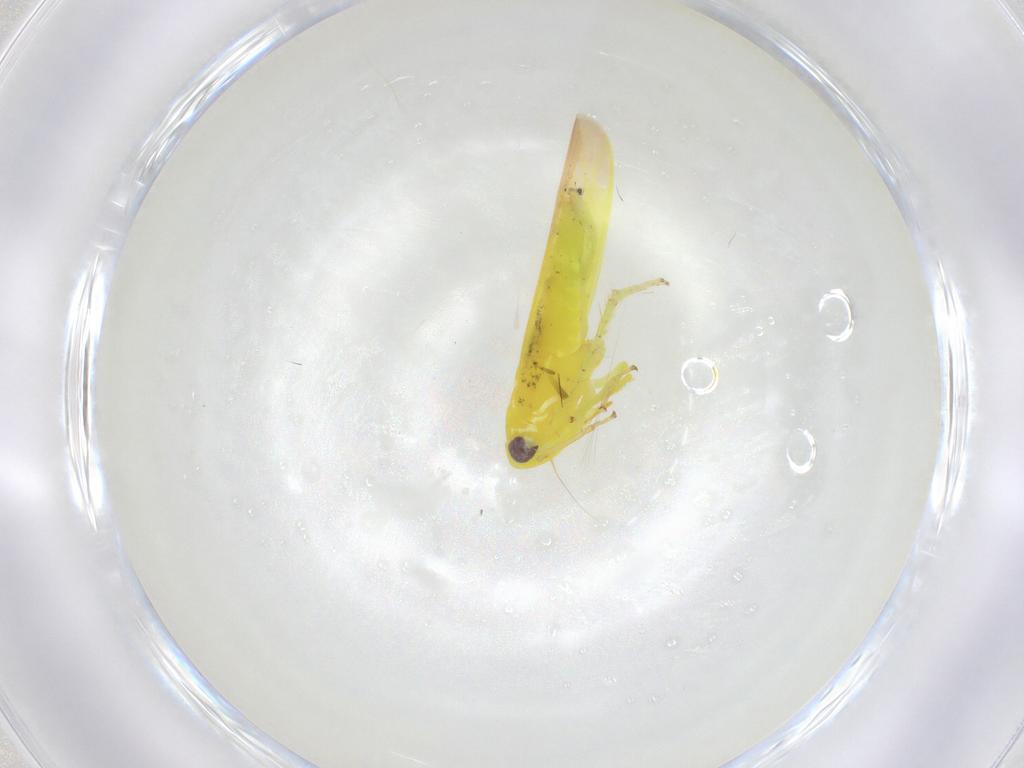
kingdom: Animalia
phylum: Arthropoda
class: Insecta
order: Hemiptera
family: Cicadellidae
